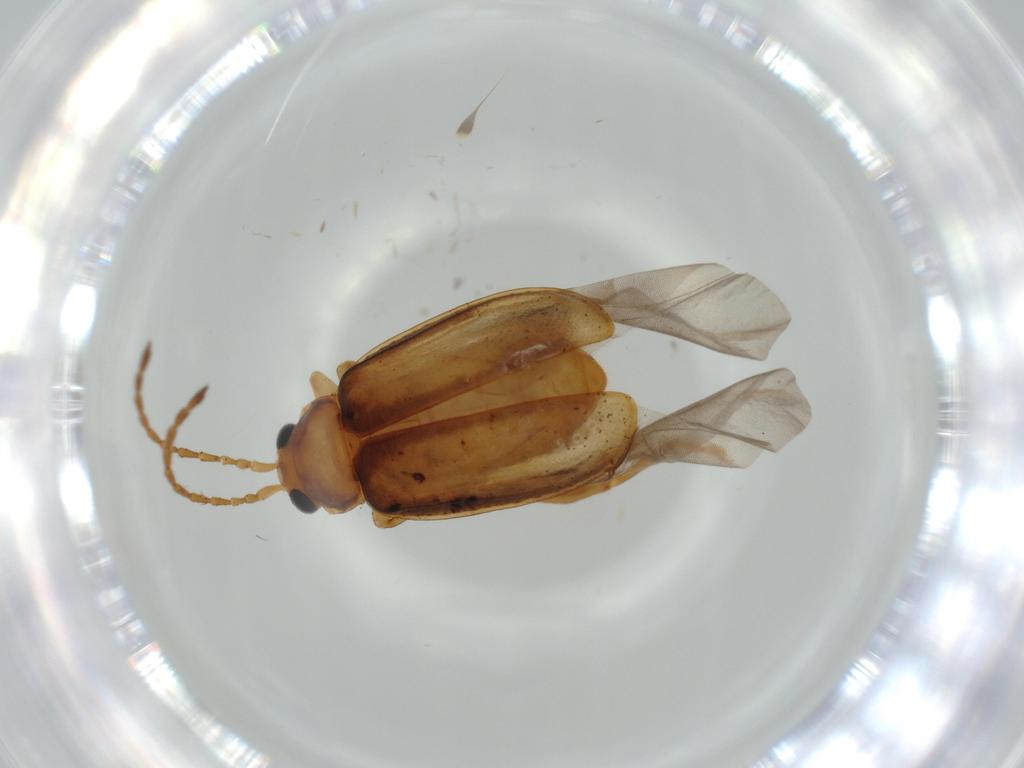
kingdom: Animalia
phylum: Arthropoda
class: Insecta
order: Coleoptera
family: Chrysomelidae
